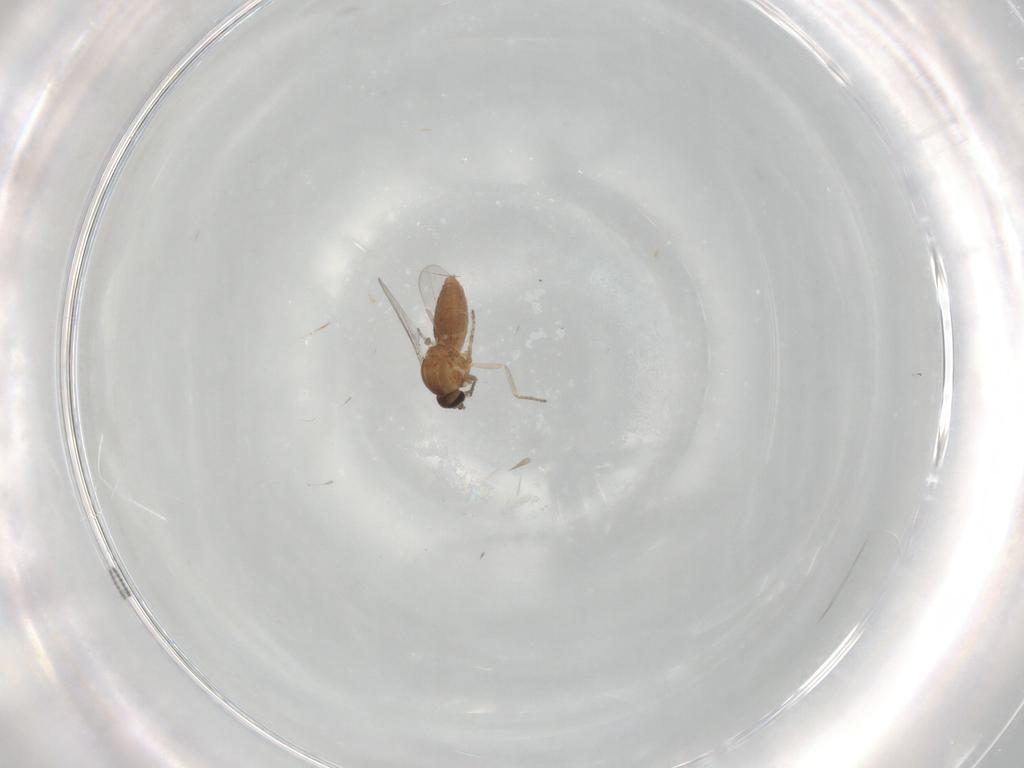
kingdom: Animalia
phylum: Arthropoda
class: Insecta
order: Diptera
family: Ceratopogonidae
